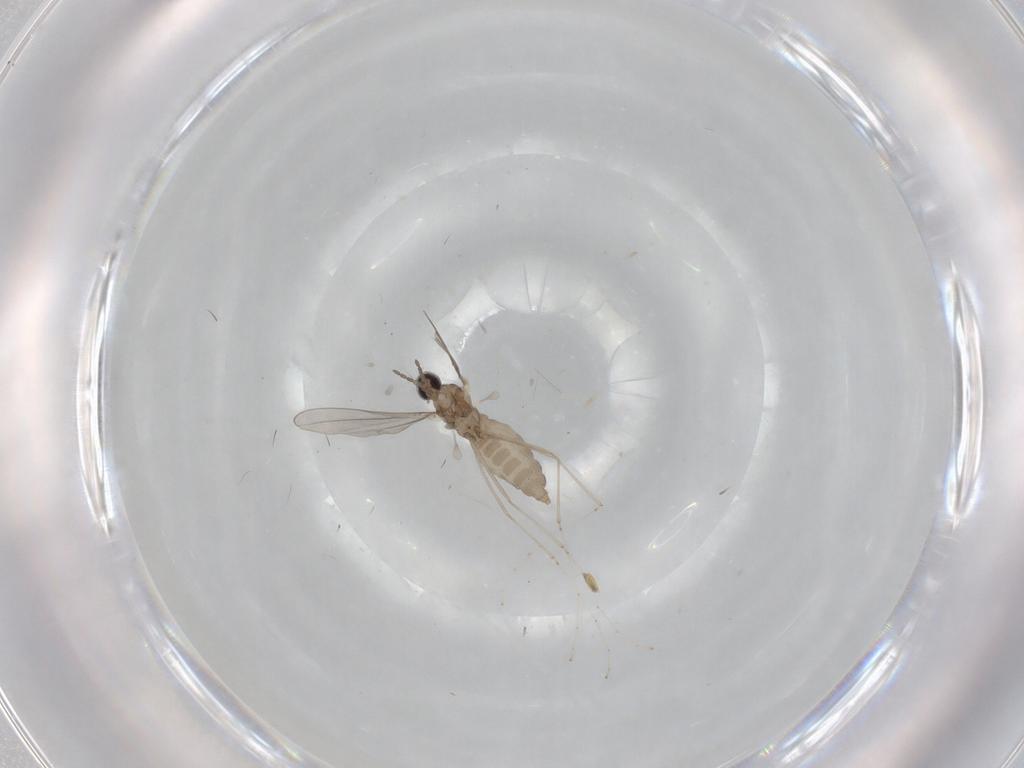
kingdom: Animalia
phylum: Arthropoda
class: Insecta
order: Diptera
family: Cecidomyiidae
